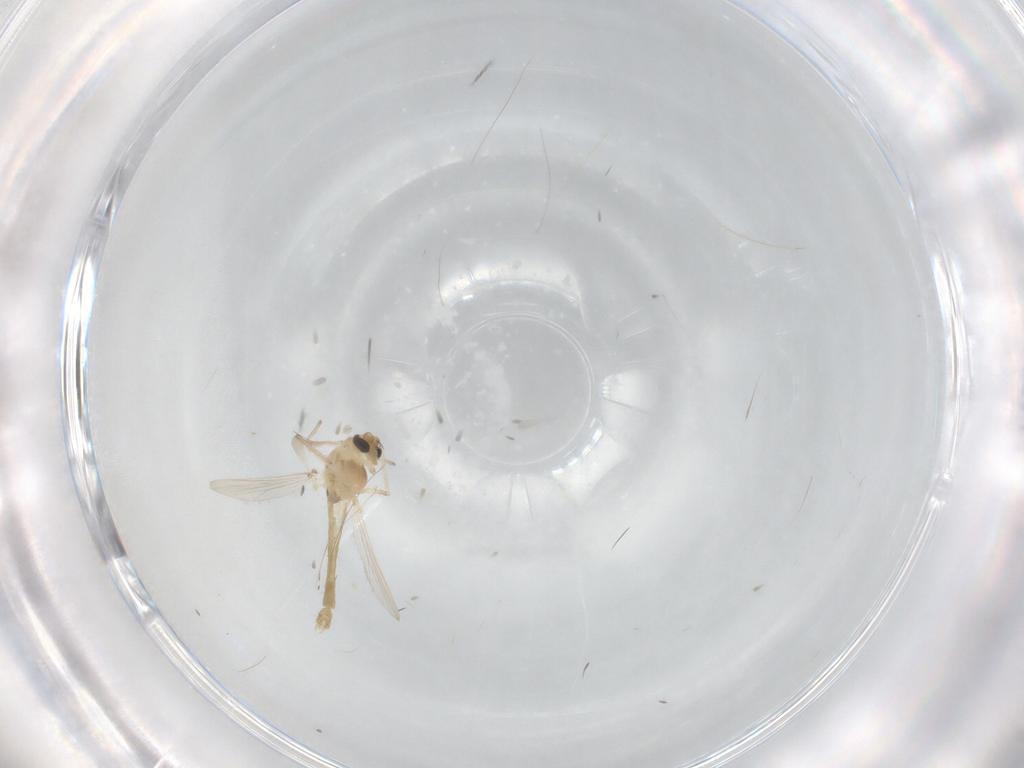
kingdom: Animalia
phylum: Arthropoda
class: Insecta
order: Diptera
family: Chironomidae
